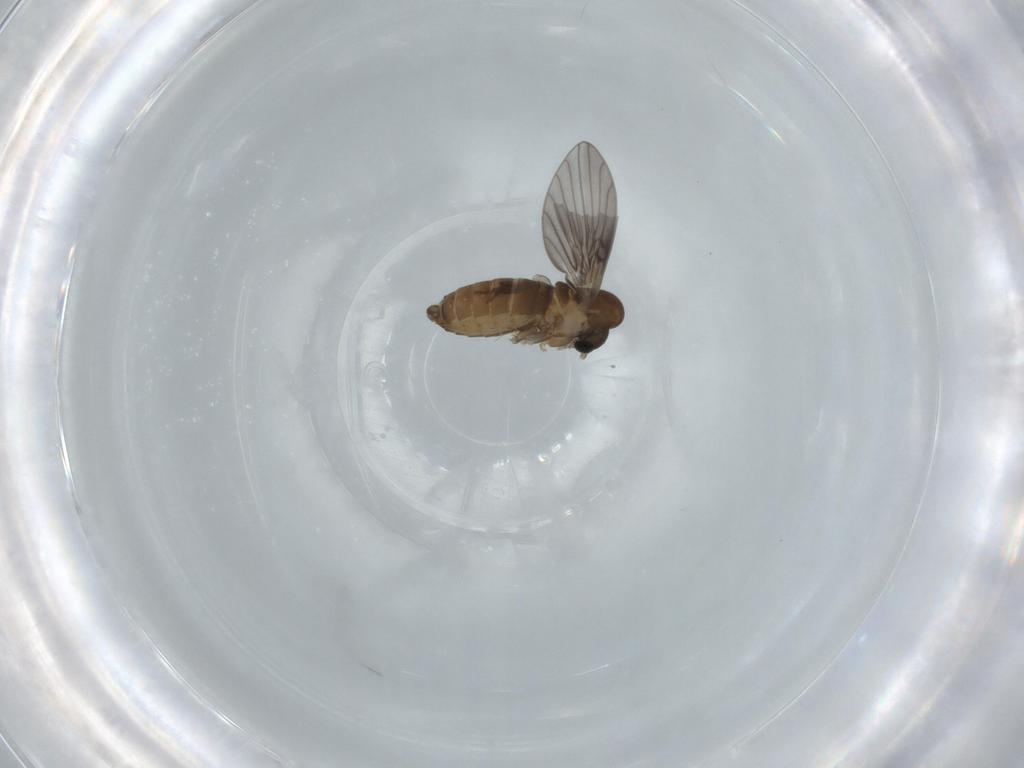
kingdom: Animalia
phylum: Arthropoda
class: Insecta
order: Diptera
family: Psychodidae
